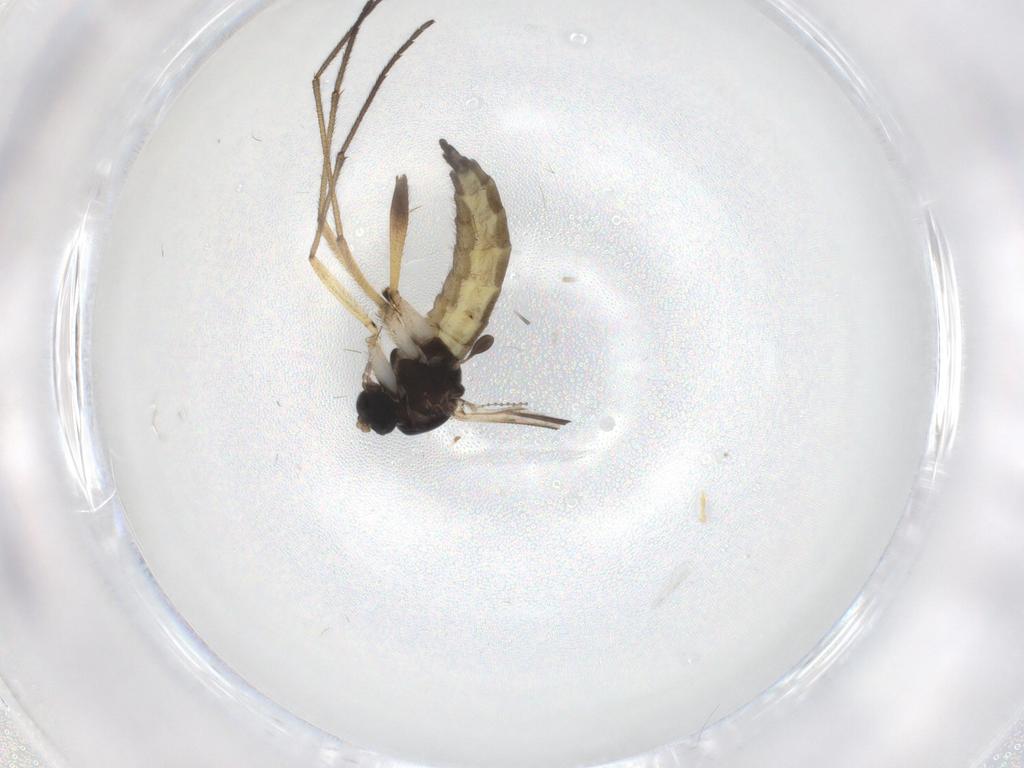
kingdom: Animalia
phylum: Arthropoda
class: Insecta
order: Diptera
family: Sciaridae
